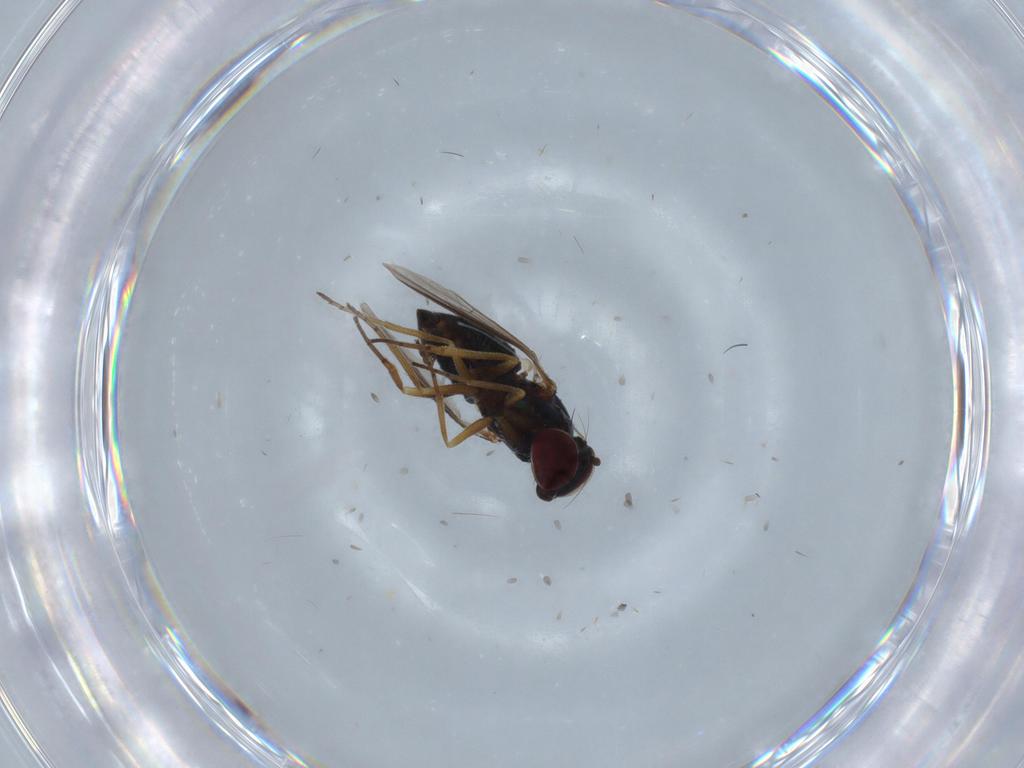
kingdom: Animalia
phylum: Arthropoda
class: Insecta
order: Diptera
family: Dolichopodidae
